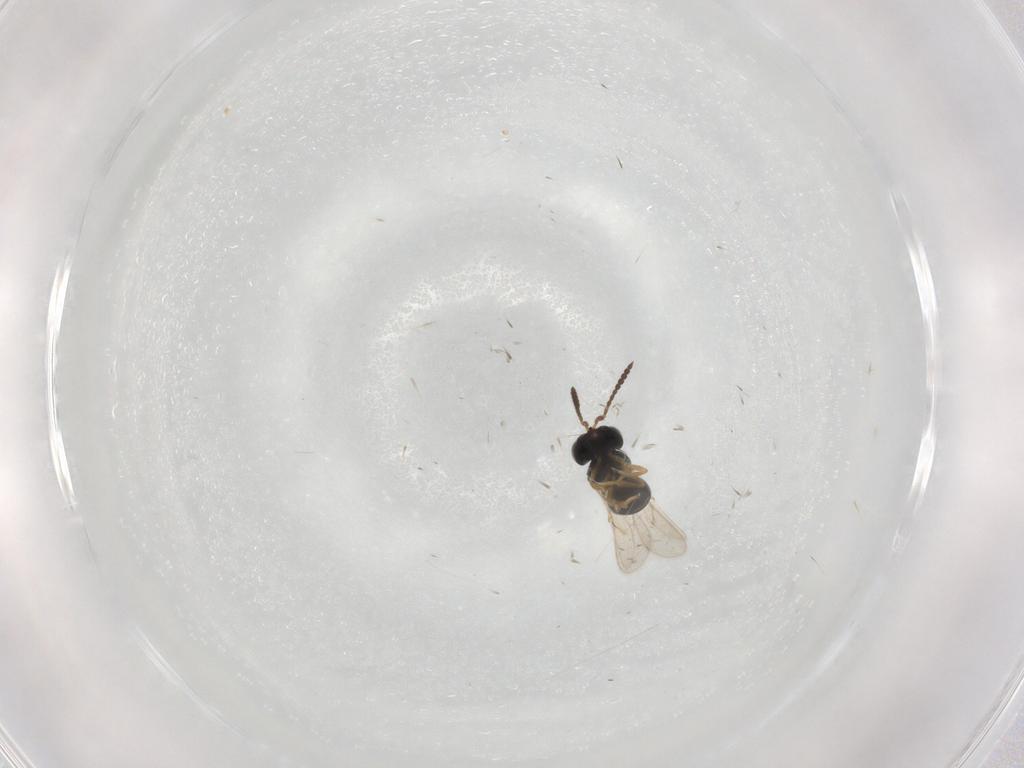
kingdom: Animalia
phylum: Arthropoda
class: Insecta
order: Hymenoptera
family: Scelionidae
